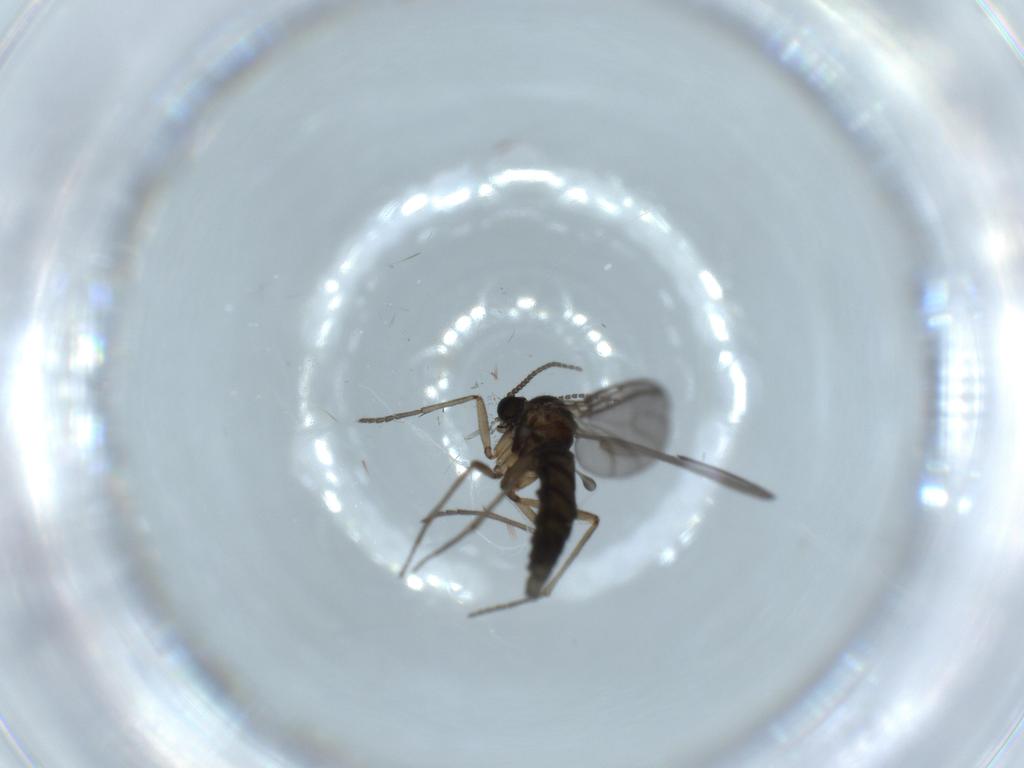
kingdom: Animalia
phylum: Arthropoda
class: Insecta
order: Diptera
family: Sciaridae
